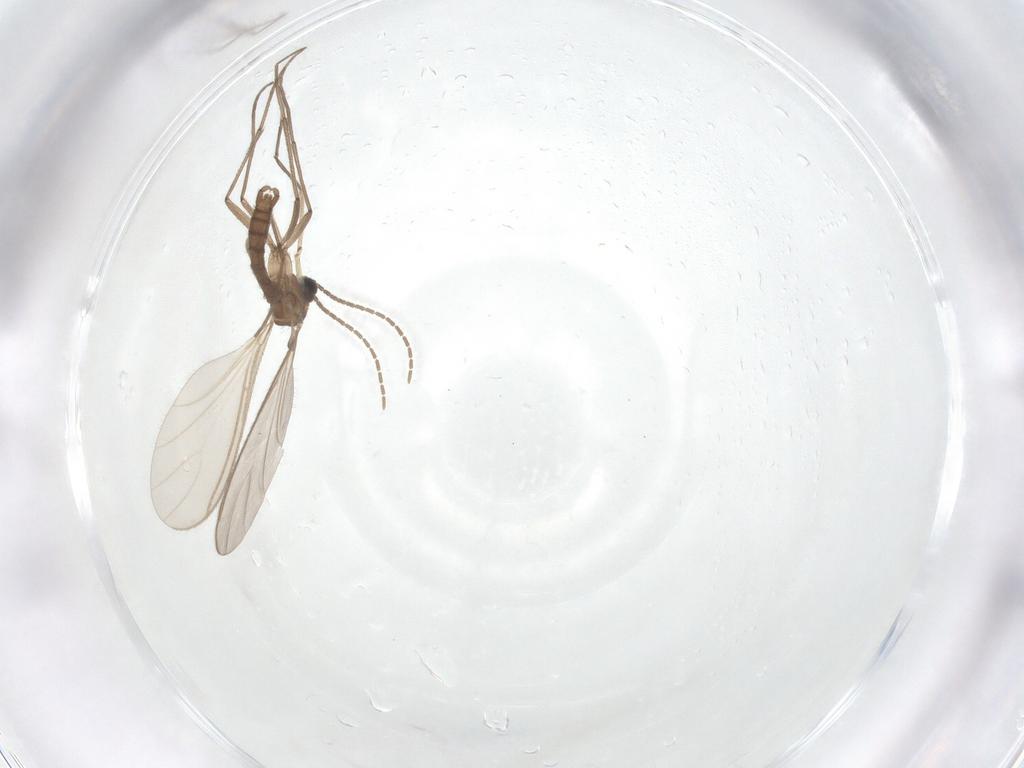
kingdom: Animalia
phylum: Arthropoda
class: Insecta
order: Diptera
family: Sciaridae
